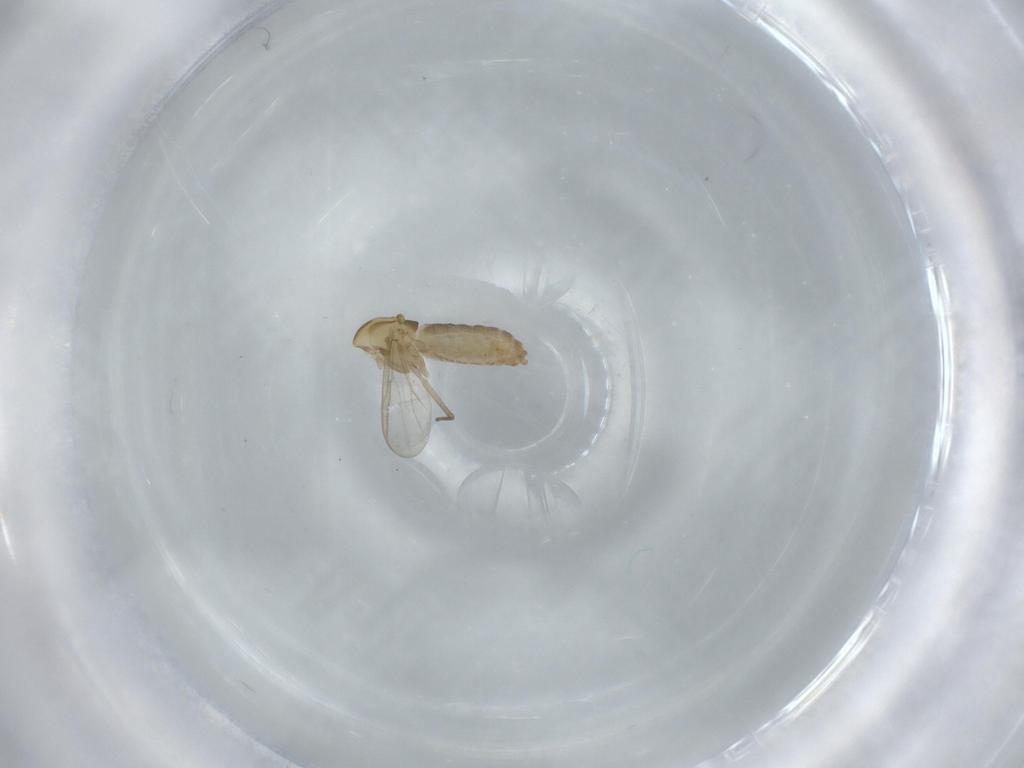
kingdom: Animalia
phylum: Arthropoda
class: Insecta
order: Diptera
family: Chironomidae
